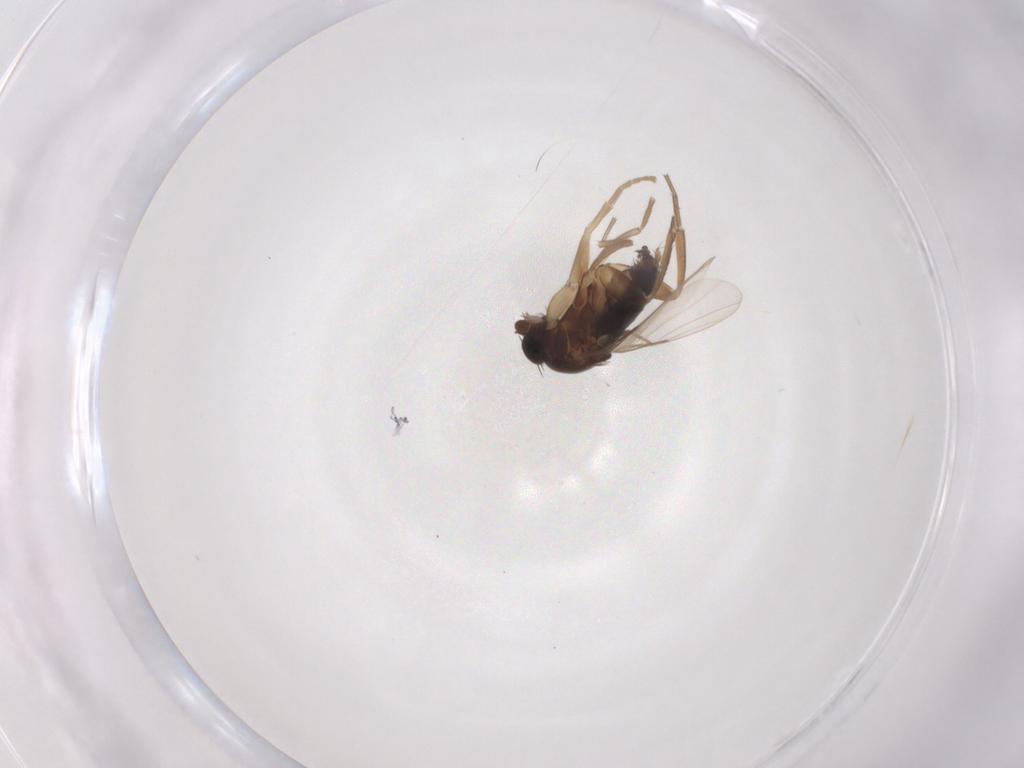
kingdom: Animalia
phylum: Arthropoda
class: Insecta
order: Diptera
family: Phoridae
